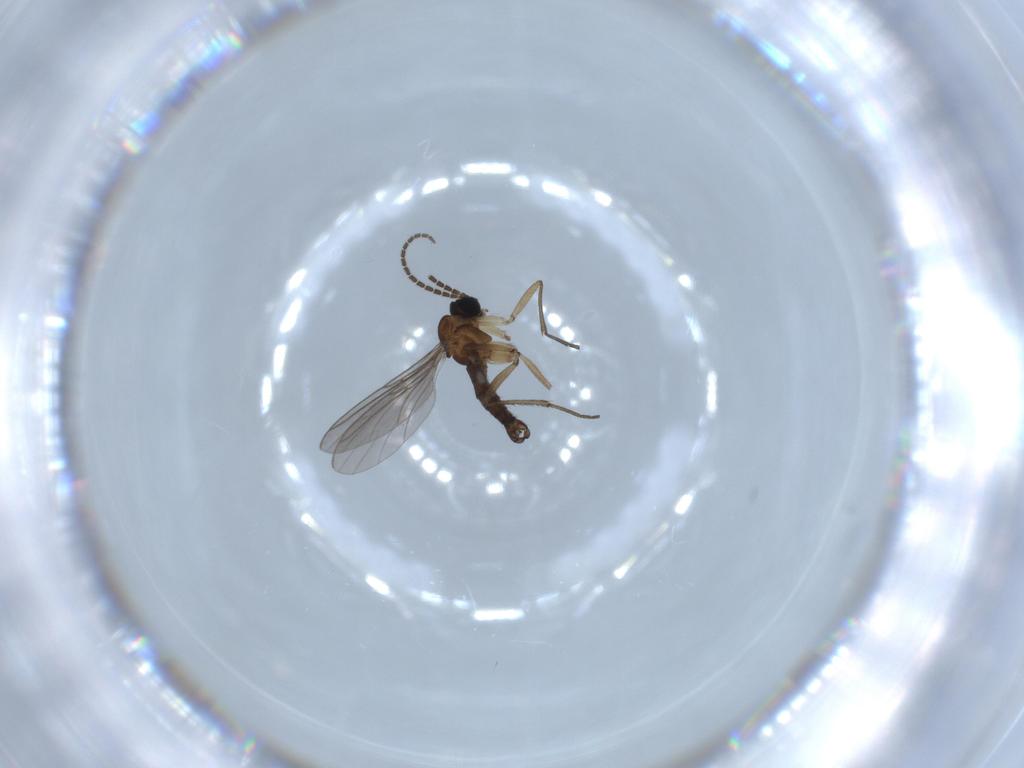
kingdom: Animalia
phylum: Arthropoda
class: Insecta
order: Diptera
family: Sciaridae
